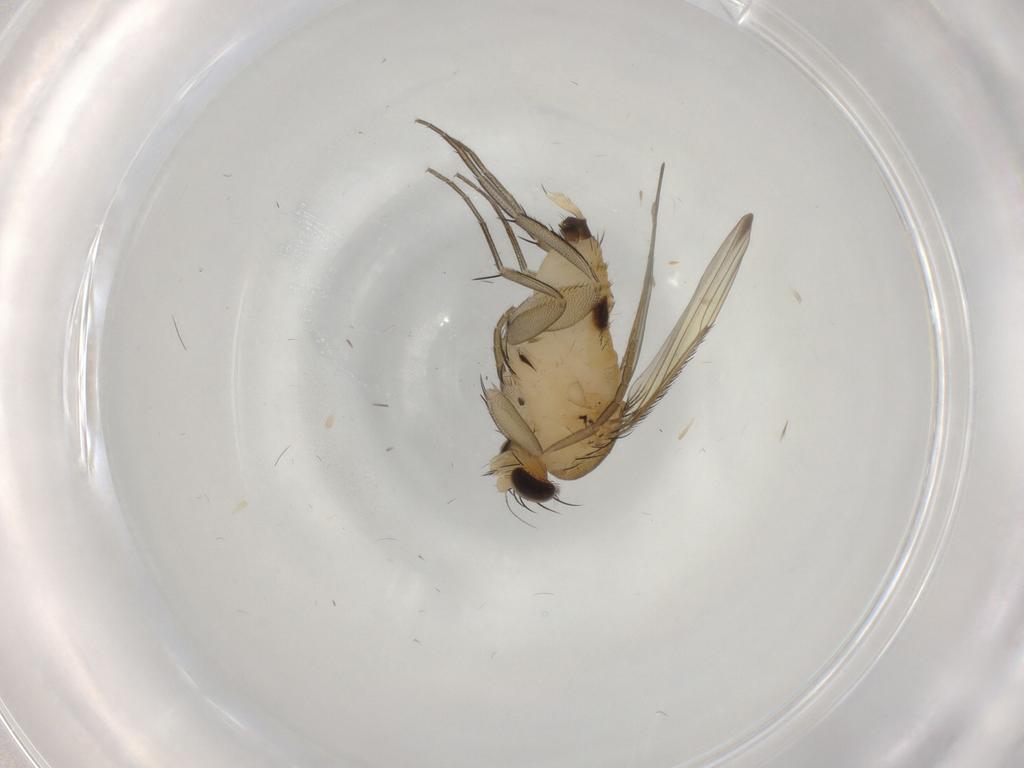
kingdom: Animalia
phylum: Arthropoda
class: Insecta
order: Diptera
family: Phoridae
